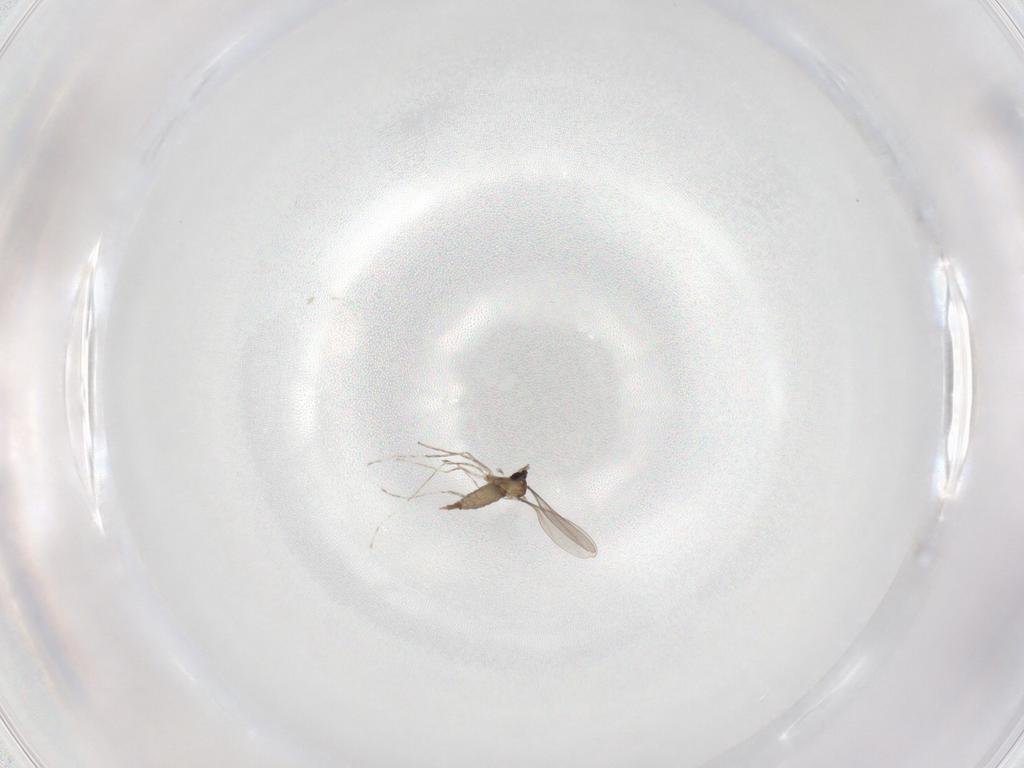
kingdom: Animalia
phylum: Arthropoda
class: Insecta
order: Diptera
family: Cecidomyiidae
